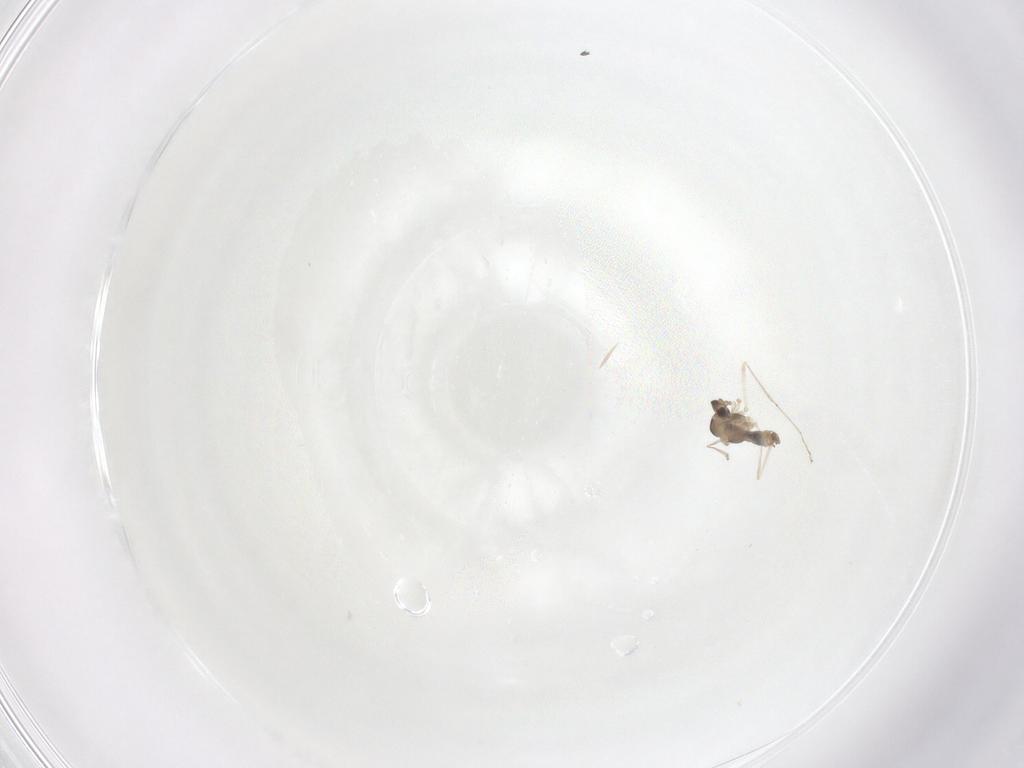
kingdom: Animalia
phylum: Arthropoda
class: Insecta
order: Diptera
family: Cecidomyiidae
